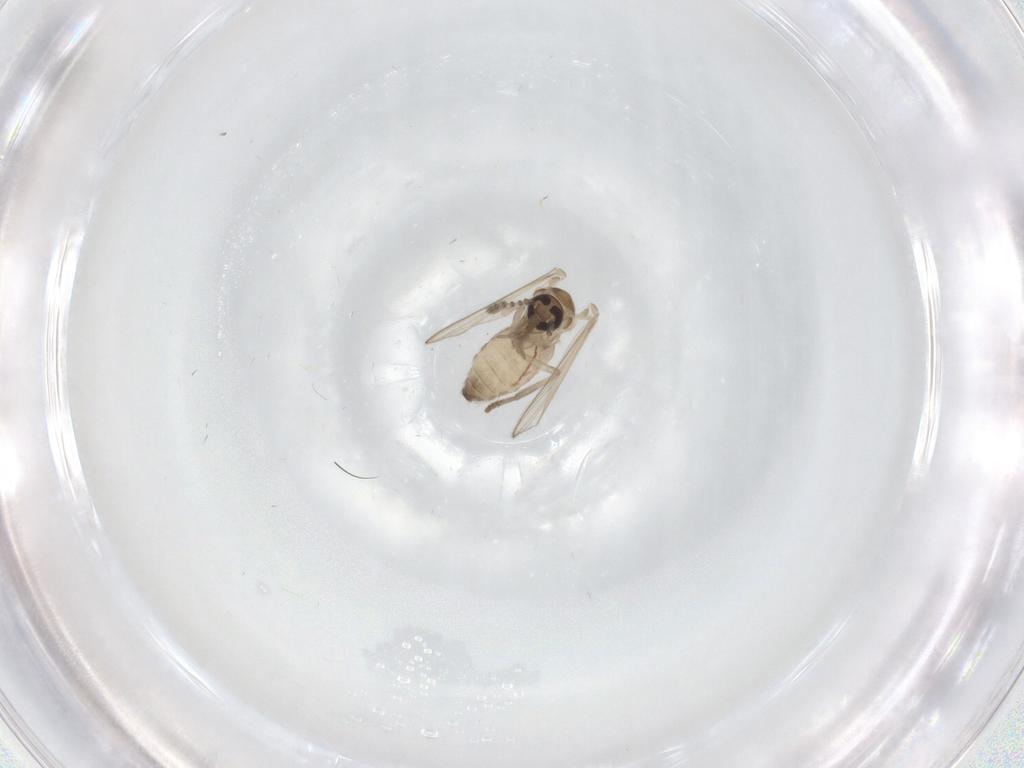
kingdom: Animalia
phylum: Arthropoda
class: Insecta
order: Diptera
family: Psychodidae
